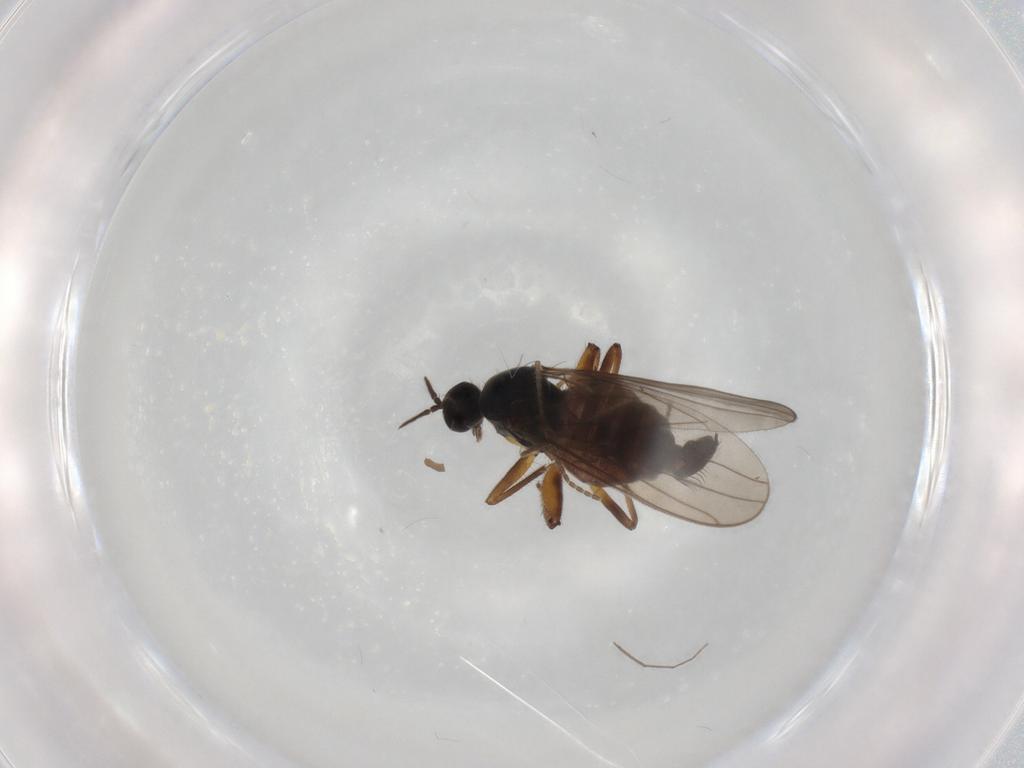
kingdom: Animalia
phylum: Arthropoda
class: Insecta
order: Diptera
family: Hybotidae
